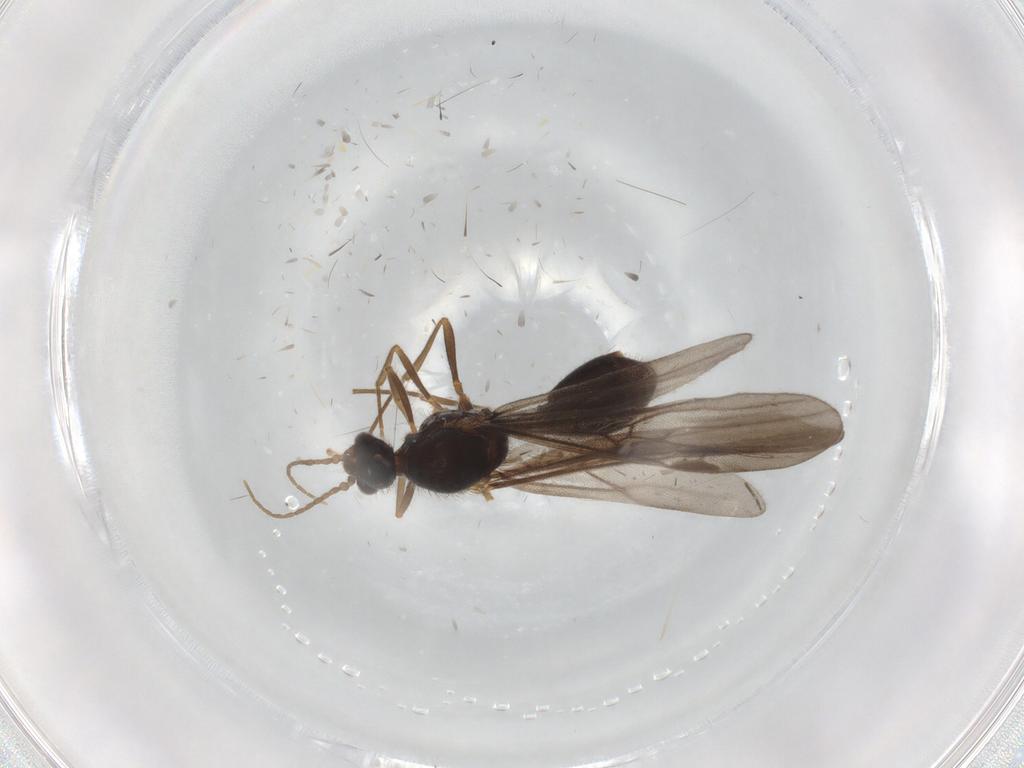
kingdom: Animalia
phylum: Arthropoda
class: Insecta
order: Hymenoptera
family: Formicidae
